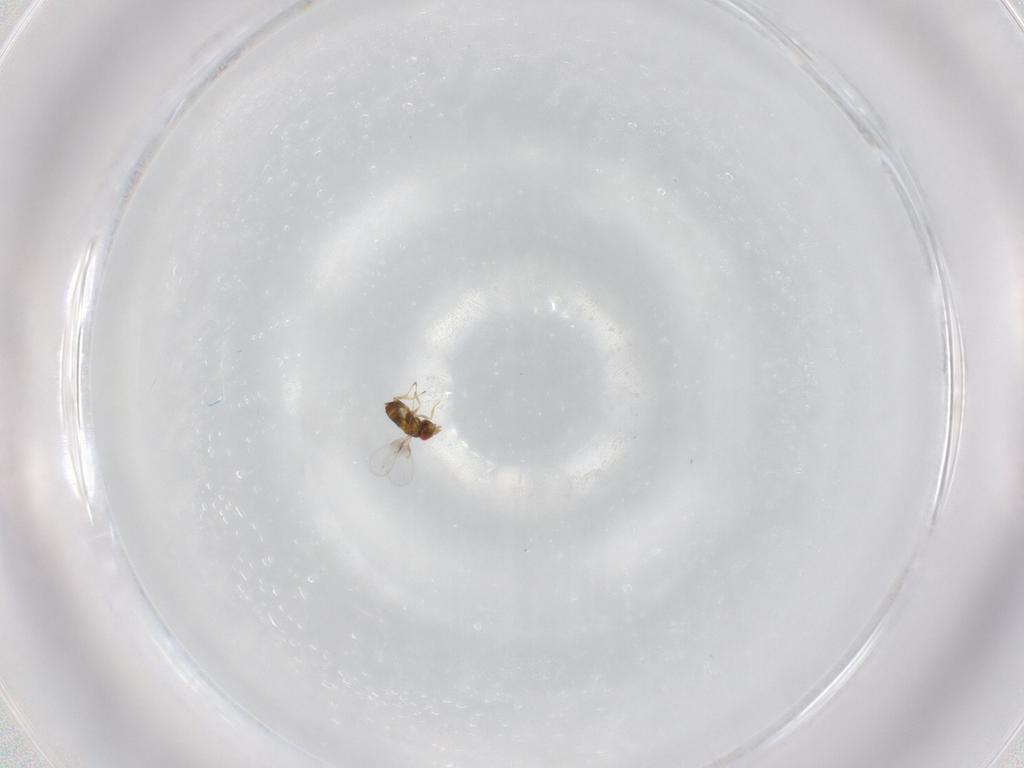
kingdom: Animalia
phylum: Arthropoda
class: Insecta
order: Hymenoptera
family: Trichogrammatidae
